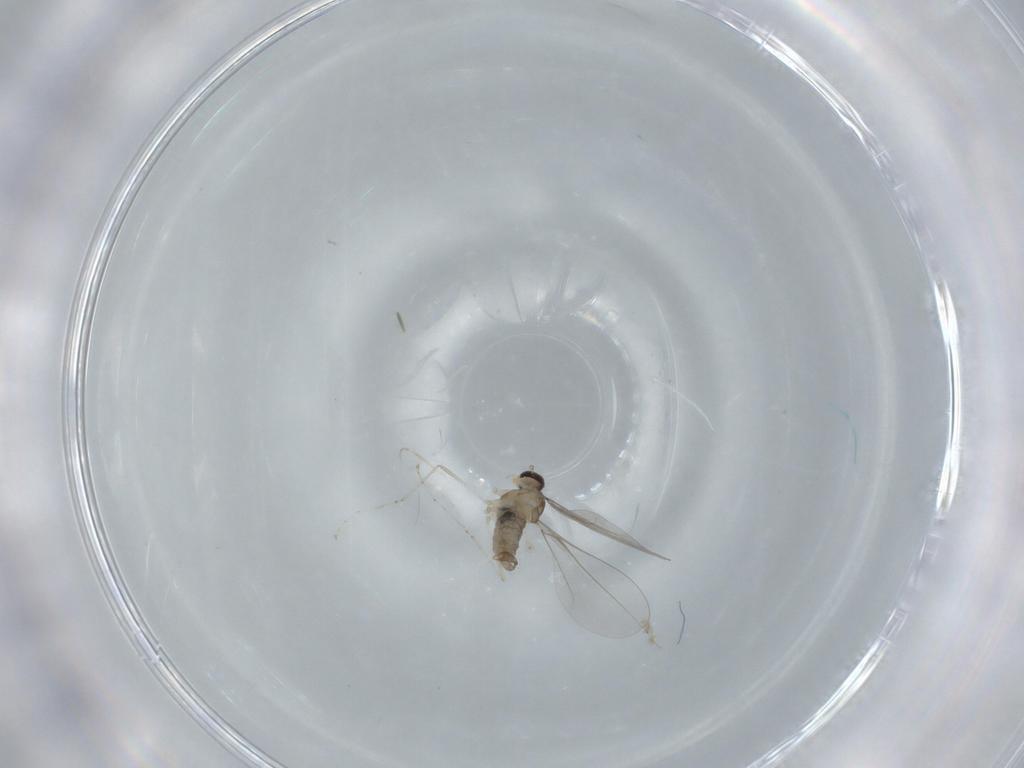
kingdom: Animalia
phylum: Arthropoda
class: Insecta
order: Diptera
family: Cecidomyiidae
